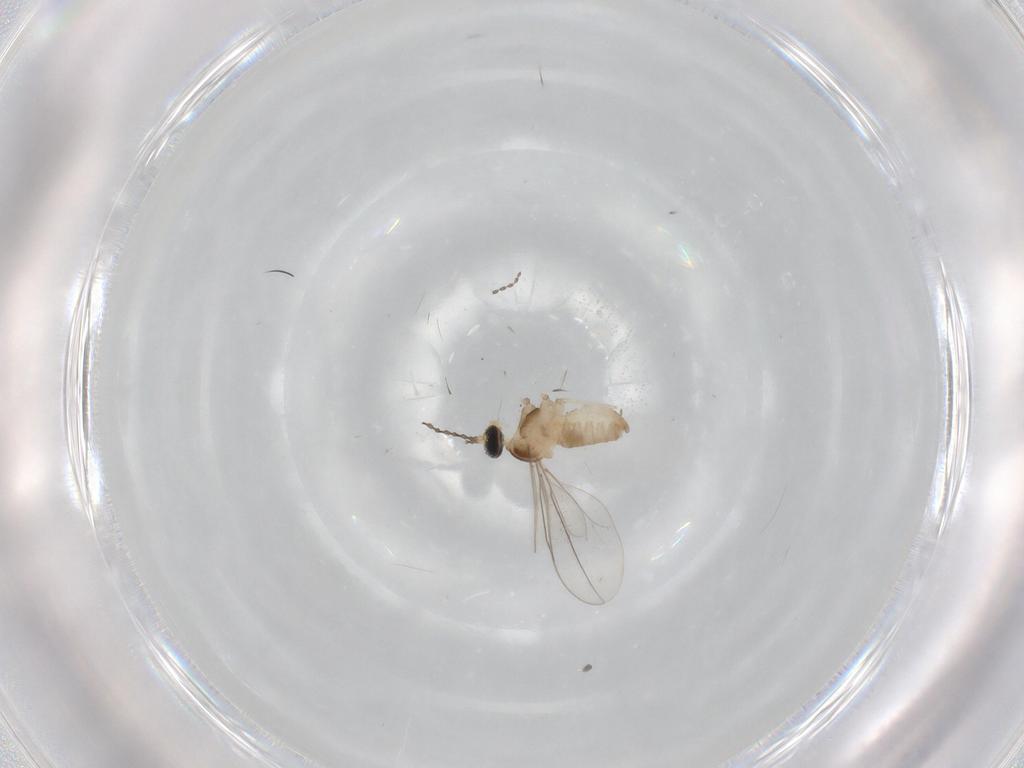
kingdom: Animalia
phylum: Arthropoda
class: Insecta
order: Diptera
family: Cecidomyiidae
